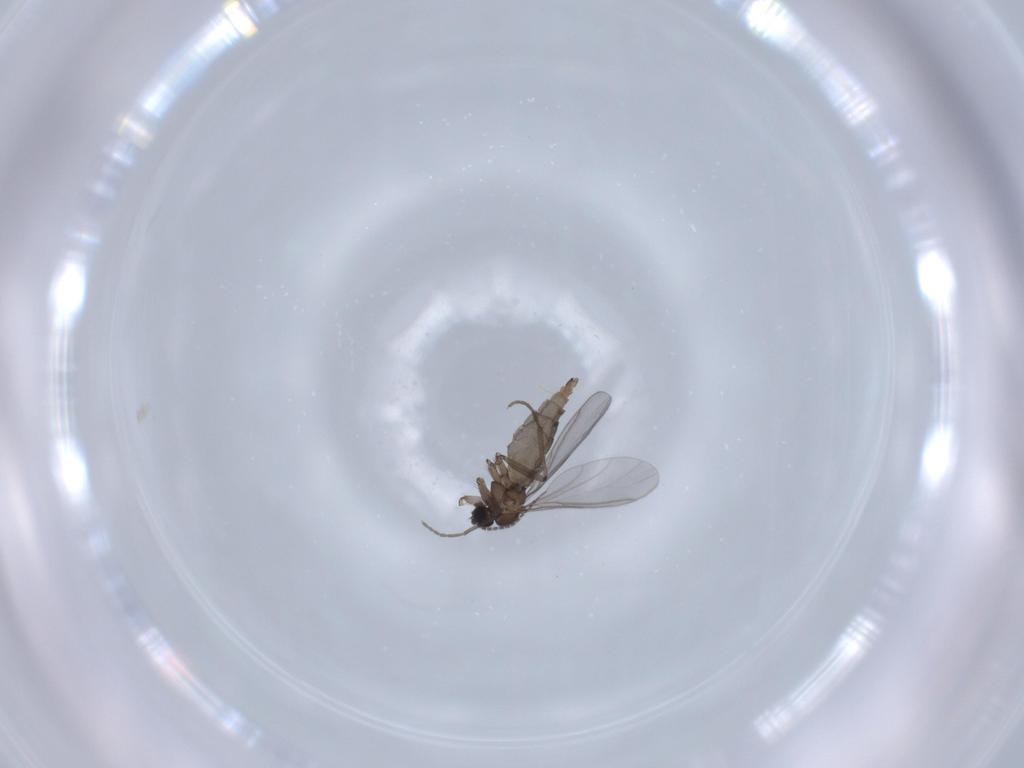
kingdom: Animalia
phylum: Arthropoda
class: Insecta
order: Diptera
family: Sciaridae
